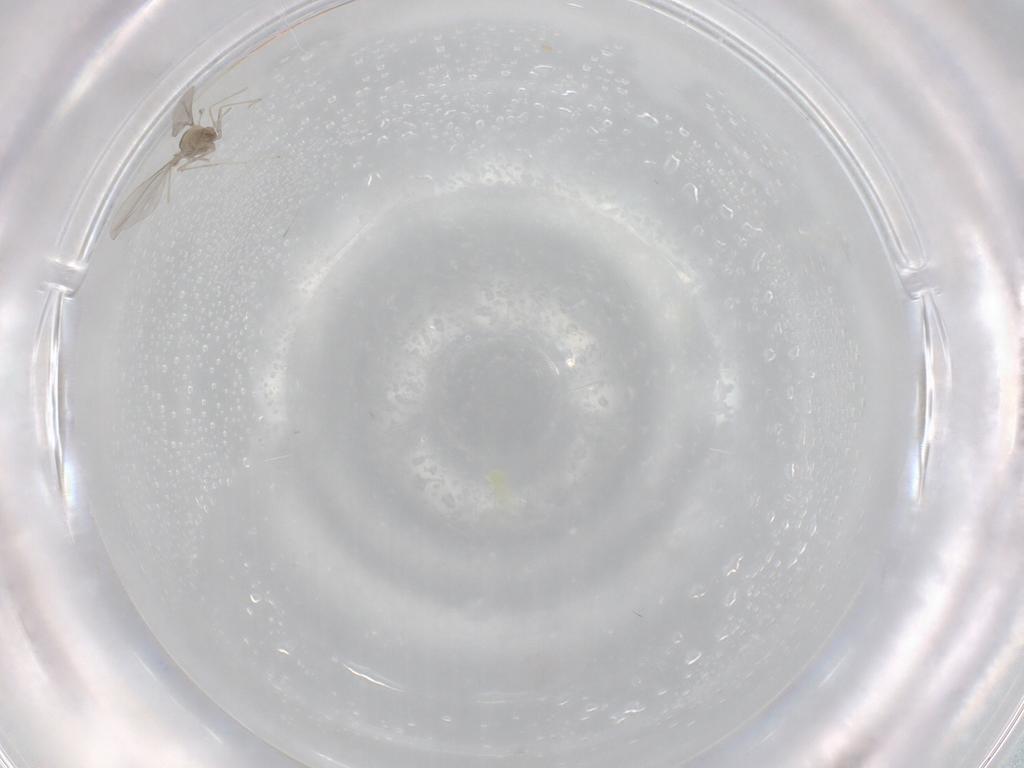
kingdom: Animalia
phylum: Arthropoda
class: Insecta
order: Diptera
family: Cecidomyiidae
